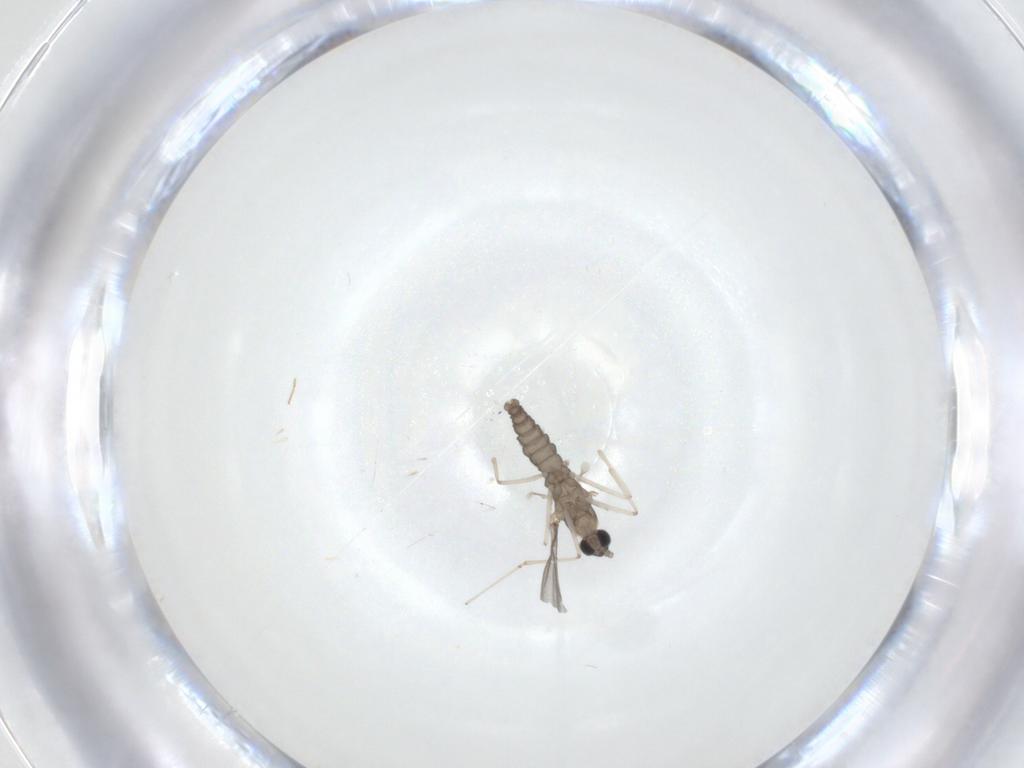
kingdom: Animalia
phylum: Arthropoda
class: Insecta
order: Diptera
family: Cecidomyiidae
